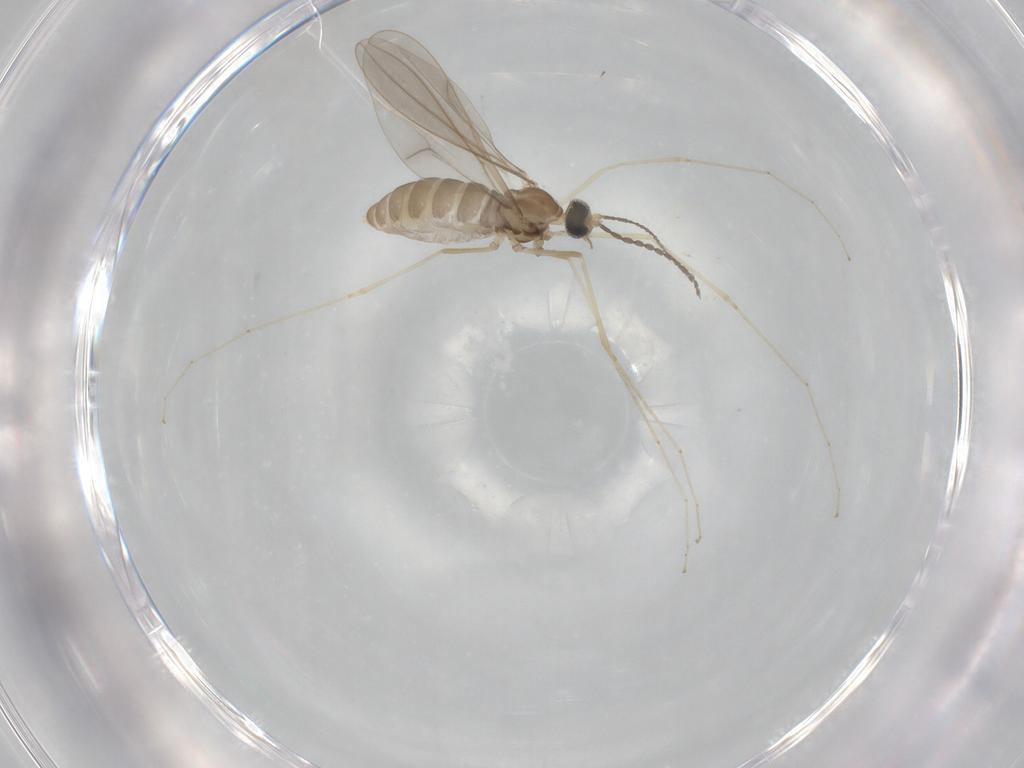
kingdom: Animalia
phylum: Arthropoda
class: Insecta
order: Diptera
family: Cecidomyiidae
